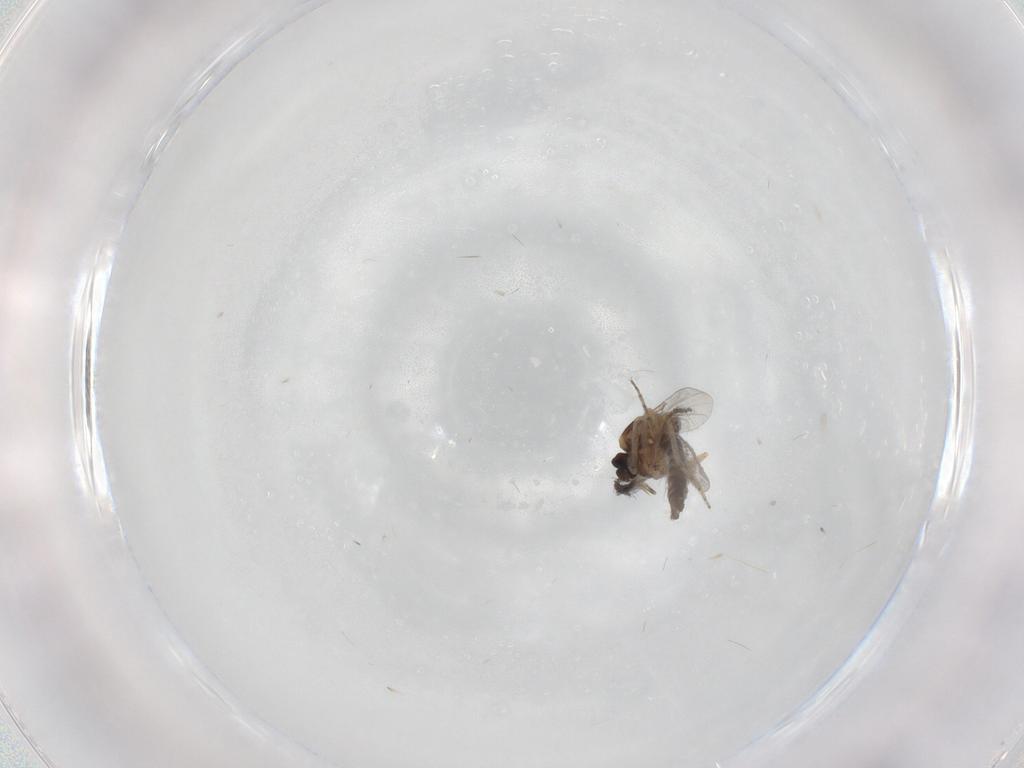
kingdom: Animalia
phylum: Arthropoda
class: Insecta
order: Diptera
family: Ceratopogonidae
